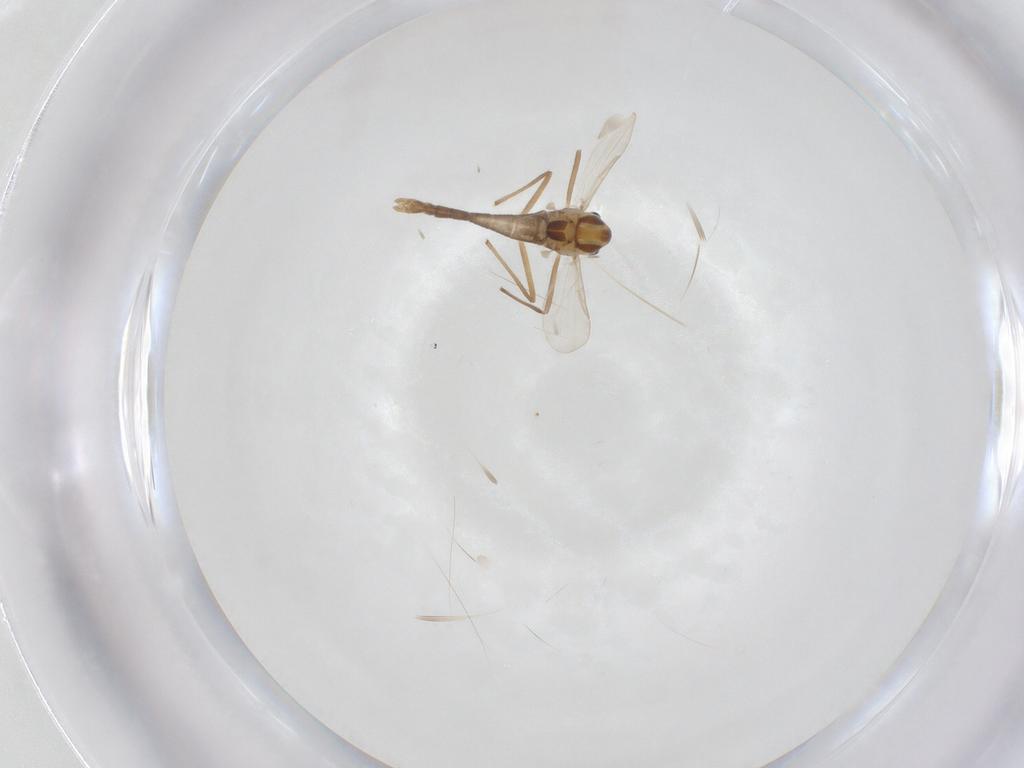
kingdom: Animalia
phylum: Arthropoda
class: Insecta
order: Diptera
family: Chironomidae
